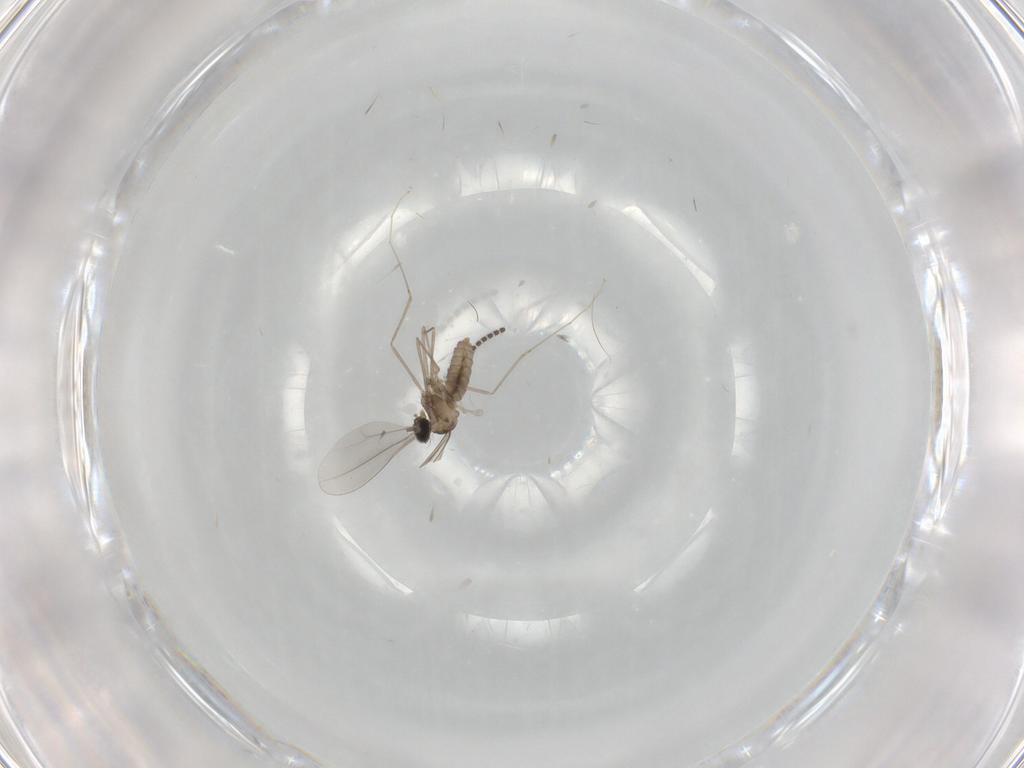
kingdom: Animalia
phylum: Arthropoda
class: Insecta
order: Diptera
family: Cecidomyiidae
